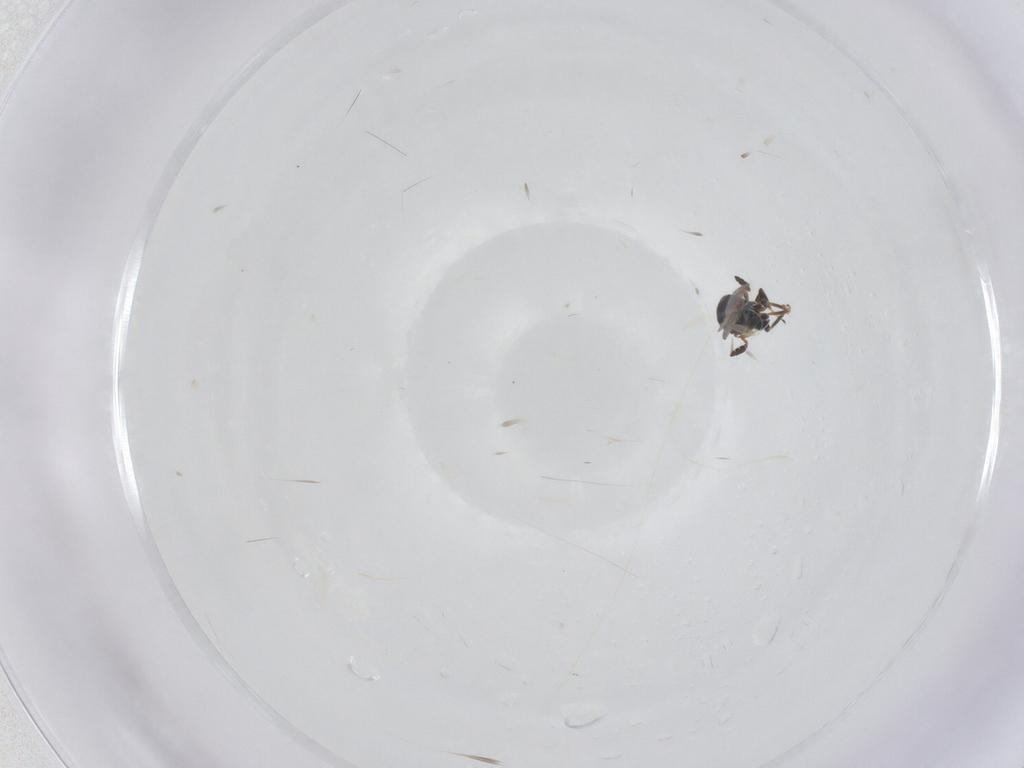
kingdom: Animalia
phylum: Arthropoda
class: Insecta
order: Hymenoptera
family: Platygastridae
